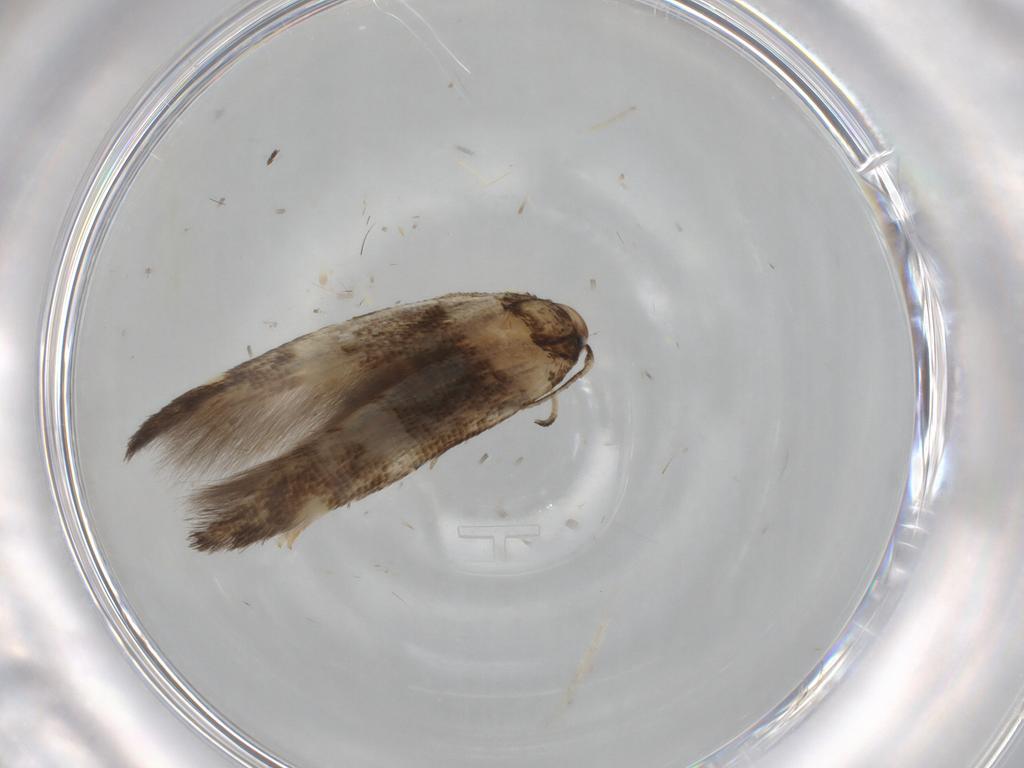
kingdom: Animalia
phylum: Arthropoda
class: Insecta
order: Lepidoptera
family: Cosmopterigidae
